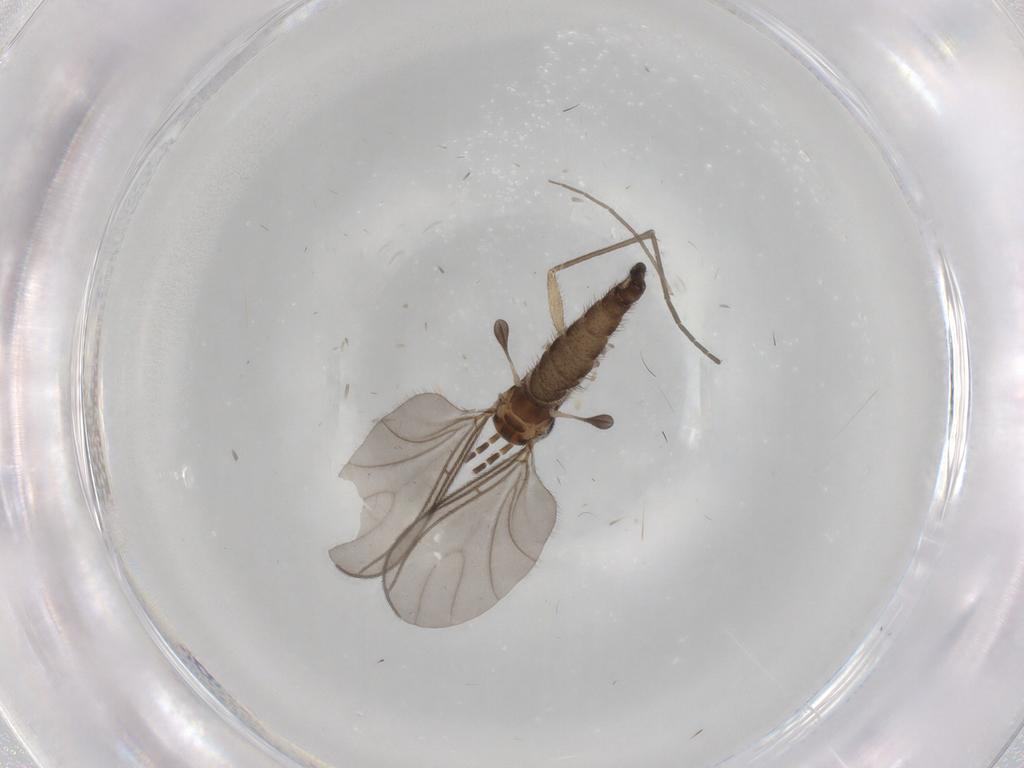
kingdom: Animalia
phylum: Arthropoda
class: Insecta
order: Diptera
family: Sciaridae
